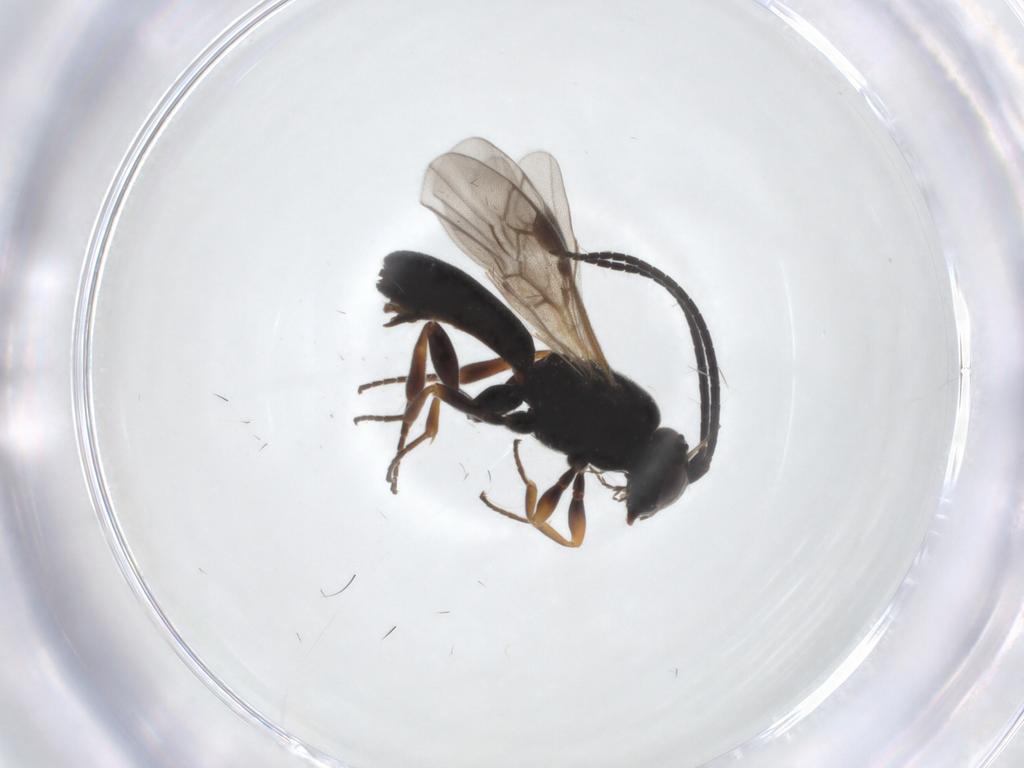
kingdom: Animalia
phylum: Arthropoda
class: Insecta
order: Hymenoptera
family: Braconidae
